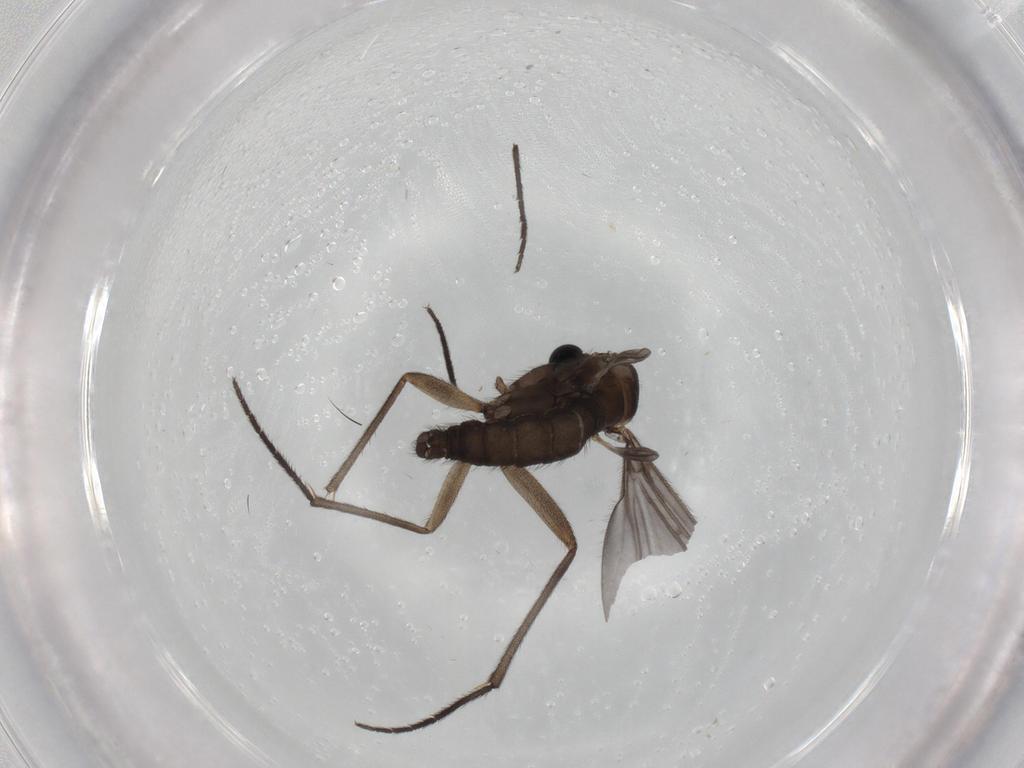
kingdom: Animalia
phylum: Arthropoda
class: Insecta
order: Diptera
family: Sciaridae
